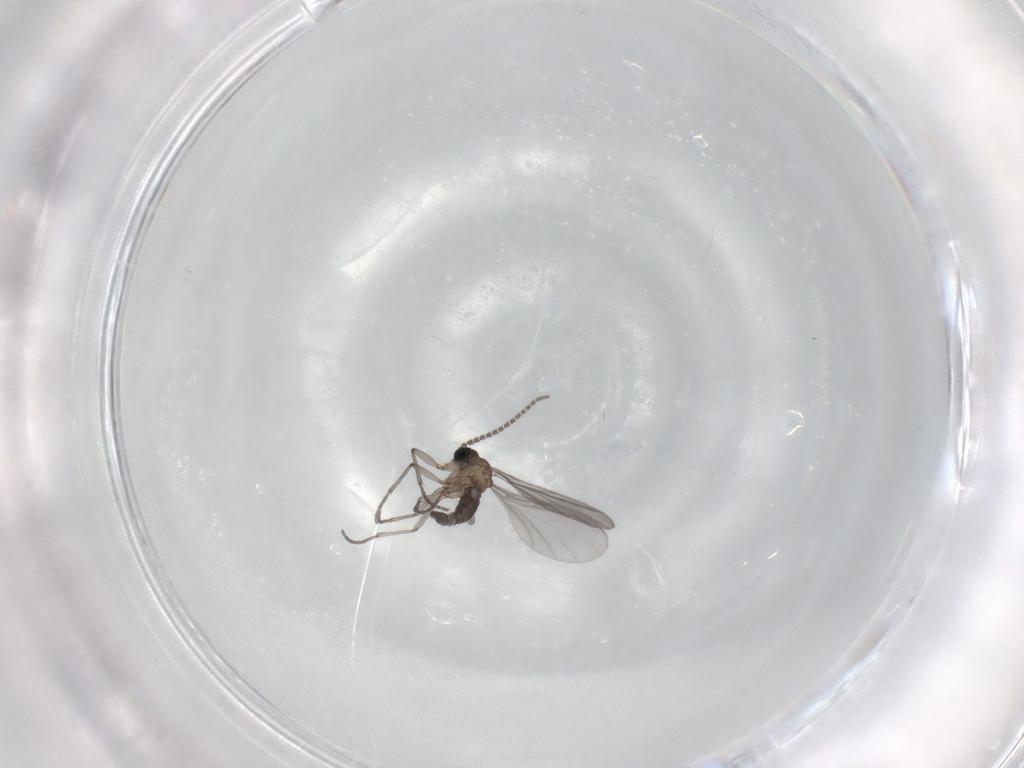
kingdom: Animalia
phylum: Arthropoda
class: Insecta
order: Diptera
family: Sciaridae
